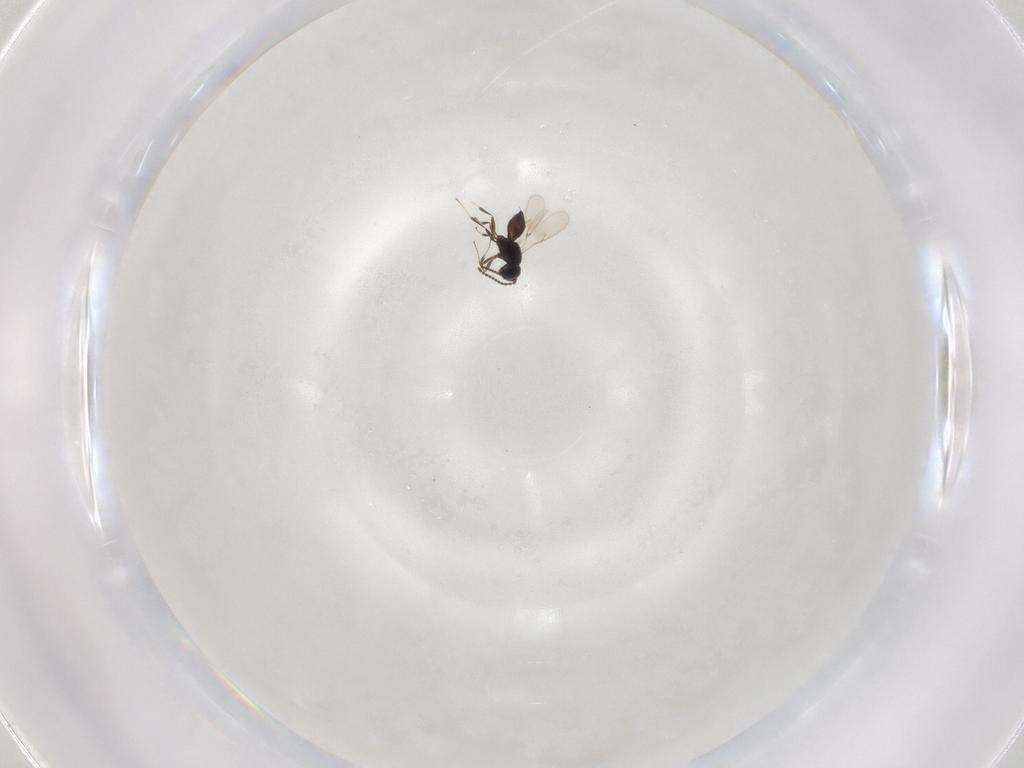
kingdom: Animalia
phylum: Arthropoda
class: Insecta
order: Hymenoptera
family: Scelionidae
